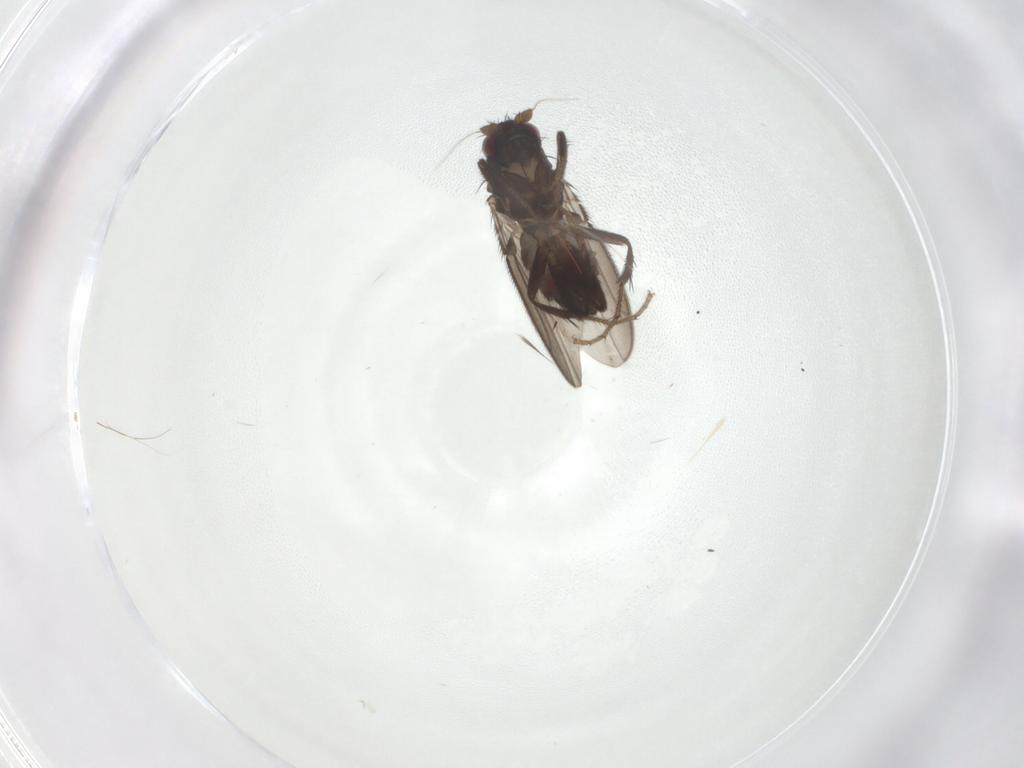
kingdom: Animalia
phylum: Arthropoda
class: Insecta
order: Diptera
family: Sphaeroceridae
